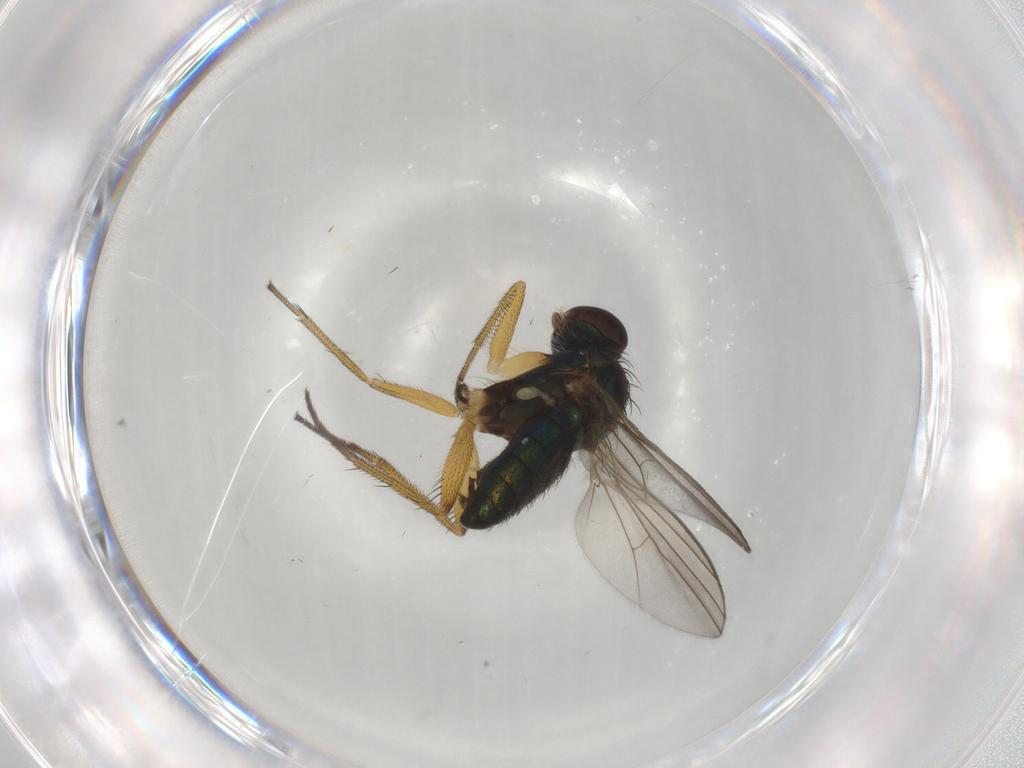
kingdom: Animalia
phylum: Arthropoda
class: Insecta
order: Diptera
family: Dolichopodidae
